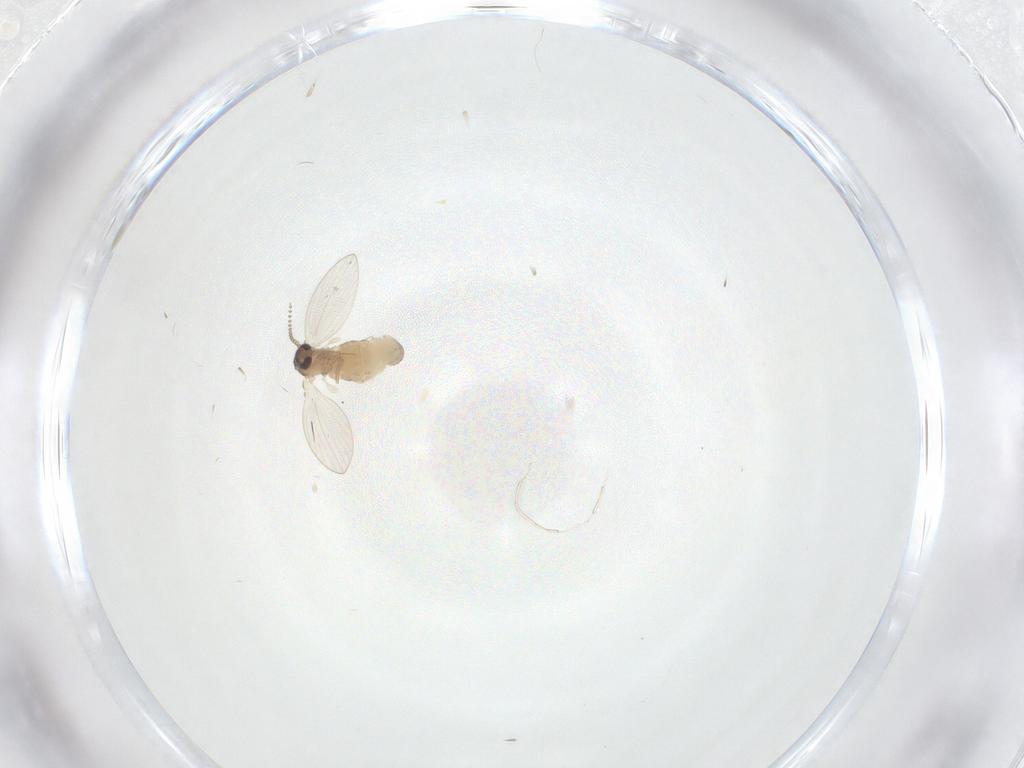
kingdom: Animalia
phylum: Arthropoda
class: Insecta
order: Diptera
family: Psychodidae
